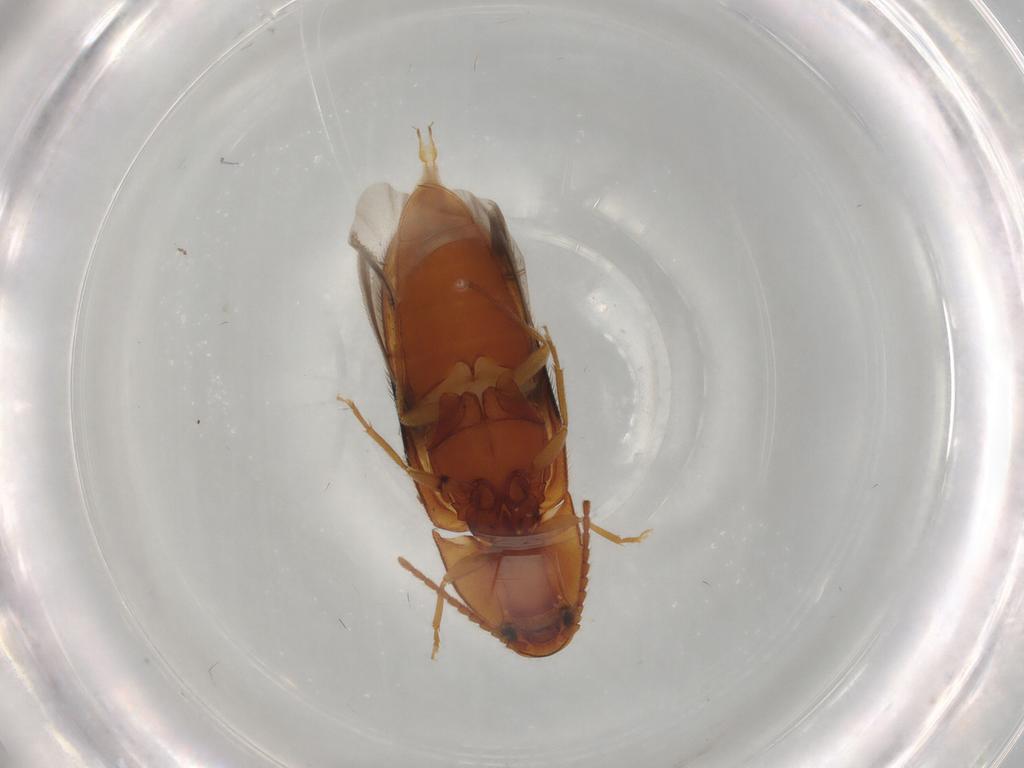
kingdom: Animalia
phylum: Arthropoda
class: Insecta
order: Coleoptera
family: Elateridae
